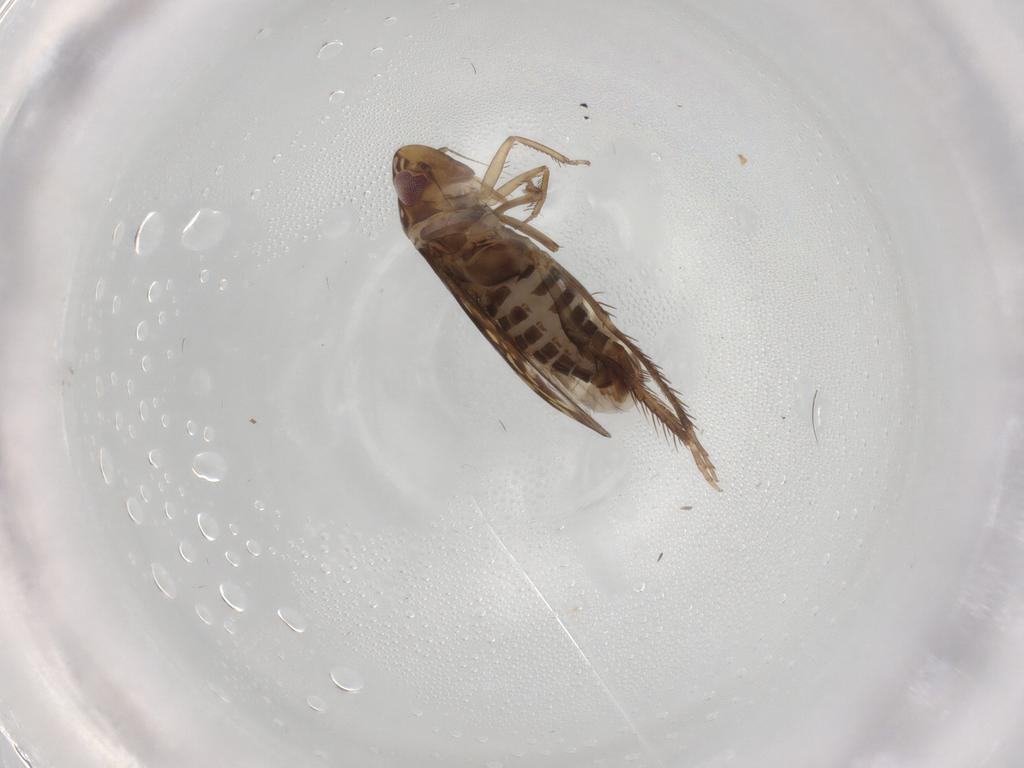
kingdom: Animalia
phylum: Arthropoda
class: Insecta
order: Hemiptera
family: Cicadellidae
